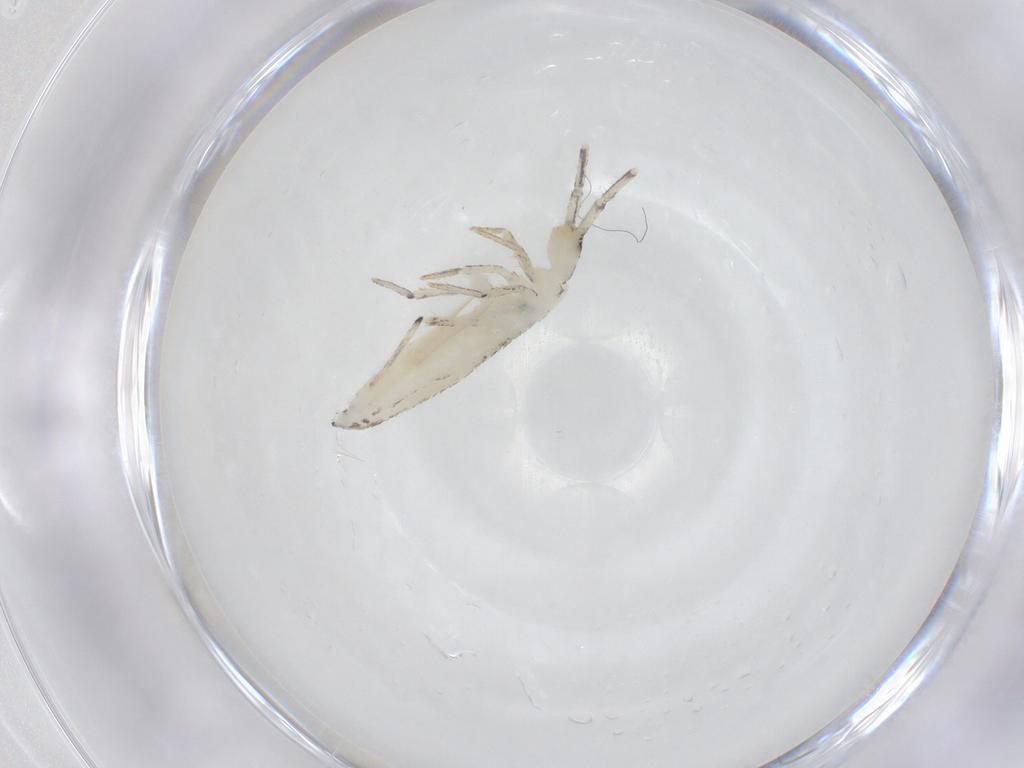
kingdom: Animalia
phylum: Arthropoda
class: Collembola
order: Entomobryomorpha
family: Entomobryidae
